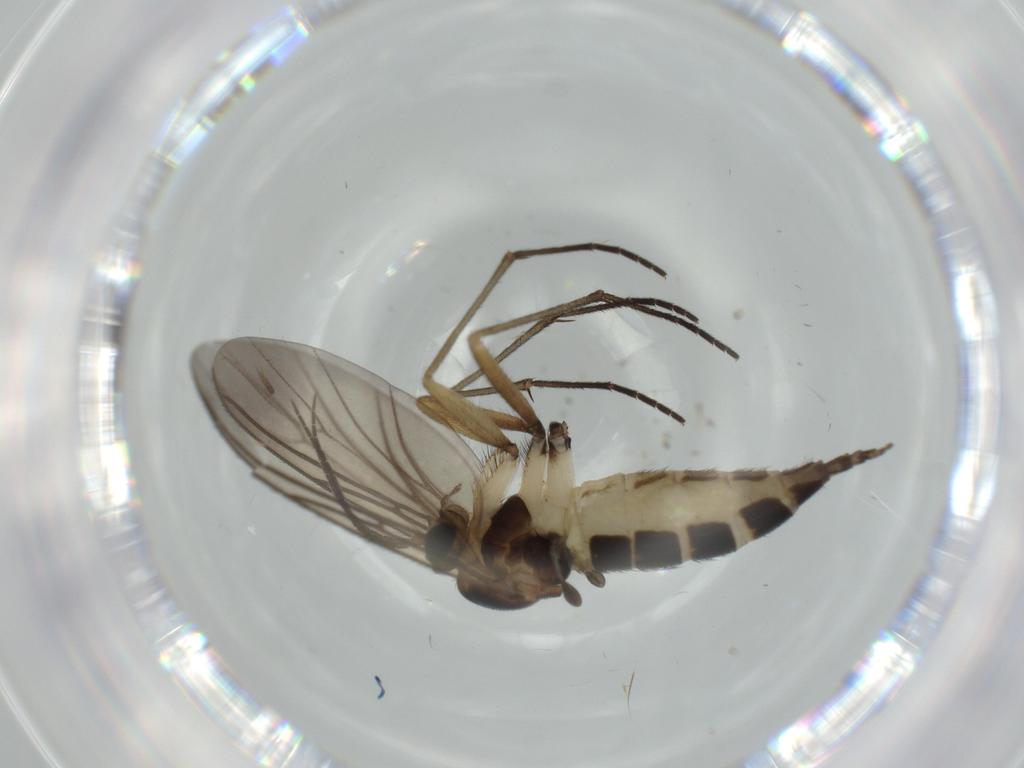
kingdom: Animalia
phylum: Arthropoda
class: Insecta
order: Diptera
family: Sciaridae
